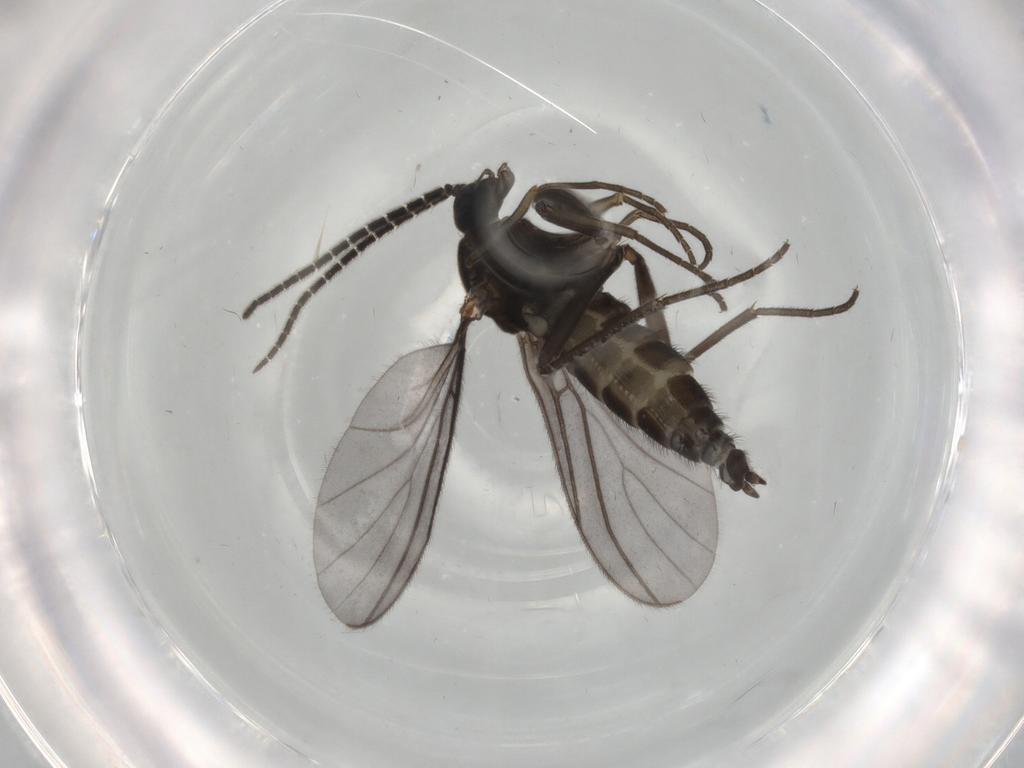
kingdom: Animalia
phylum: Arthropoda
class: Insecta
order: Diptera
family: Sciaridae
